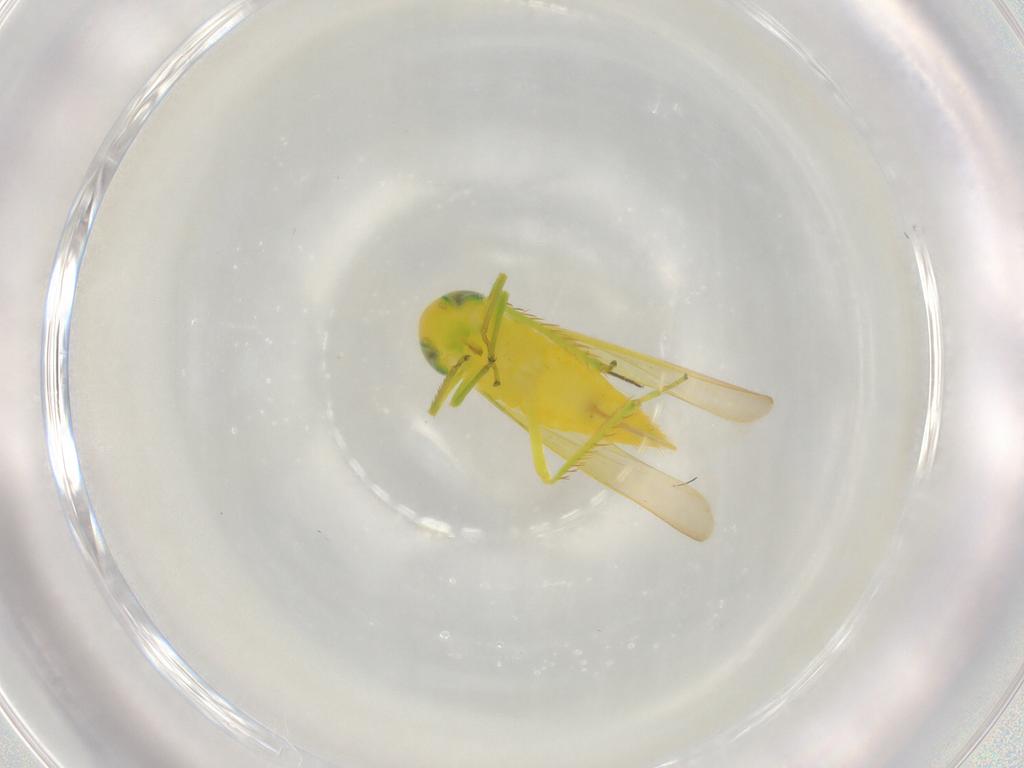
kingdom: Animalia
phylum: Arthropoda
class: Insecta
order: Hemiptera
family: Cicadellidae
